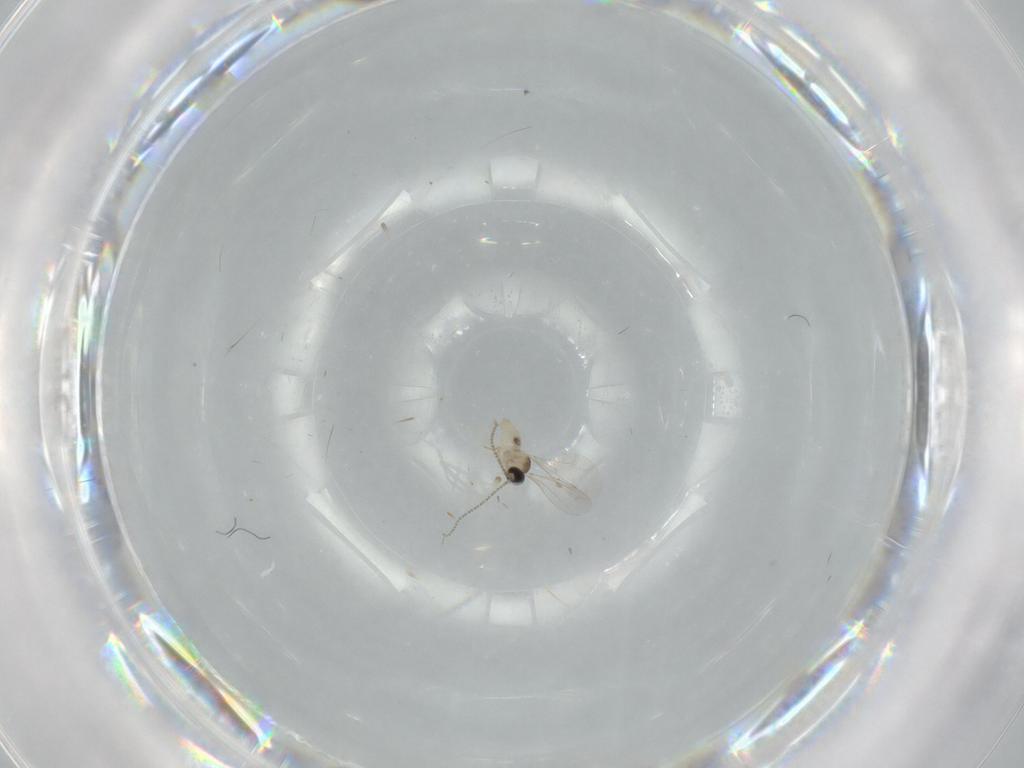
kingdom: Animalia
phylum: Arthropoda
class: Insecta
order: Diptera
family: Cecidomyiidae
